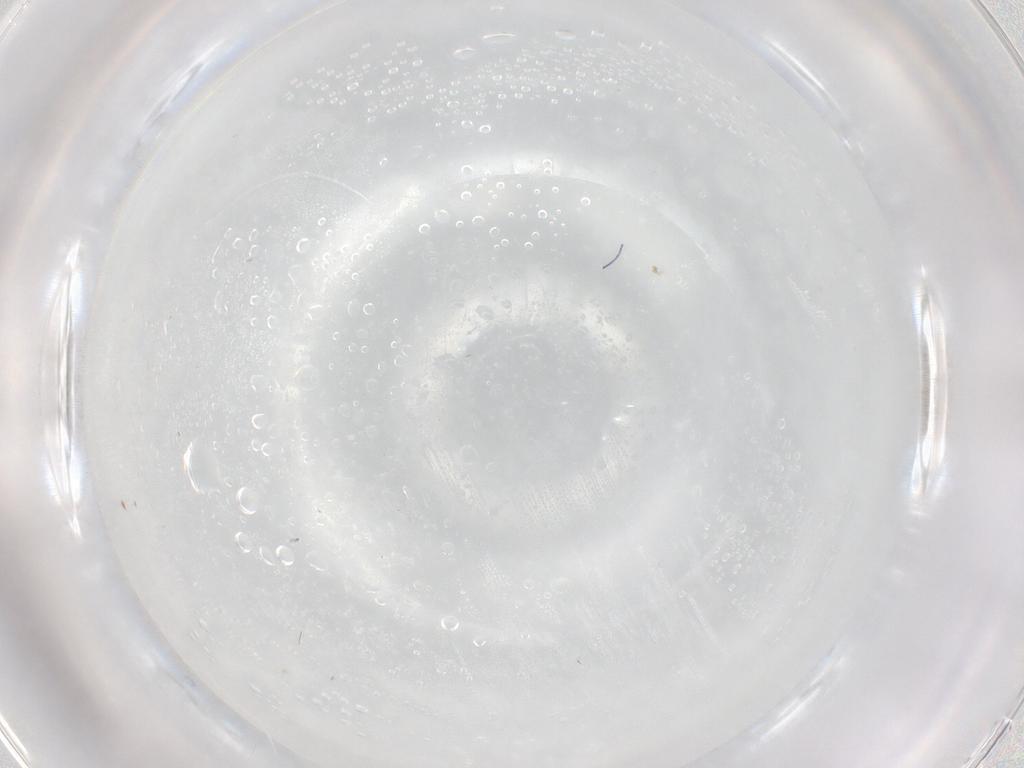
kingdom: Animalia
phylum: Arthropoda
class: Insecta
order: Diptera
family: Chironomidae
